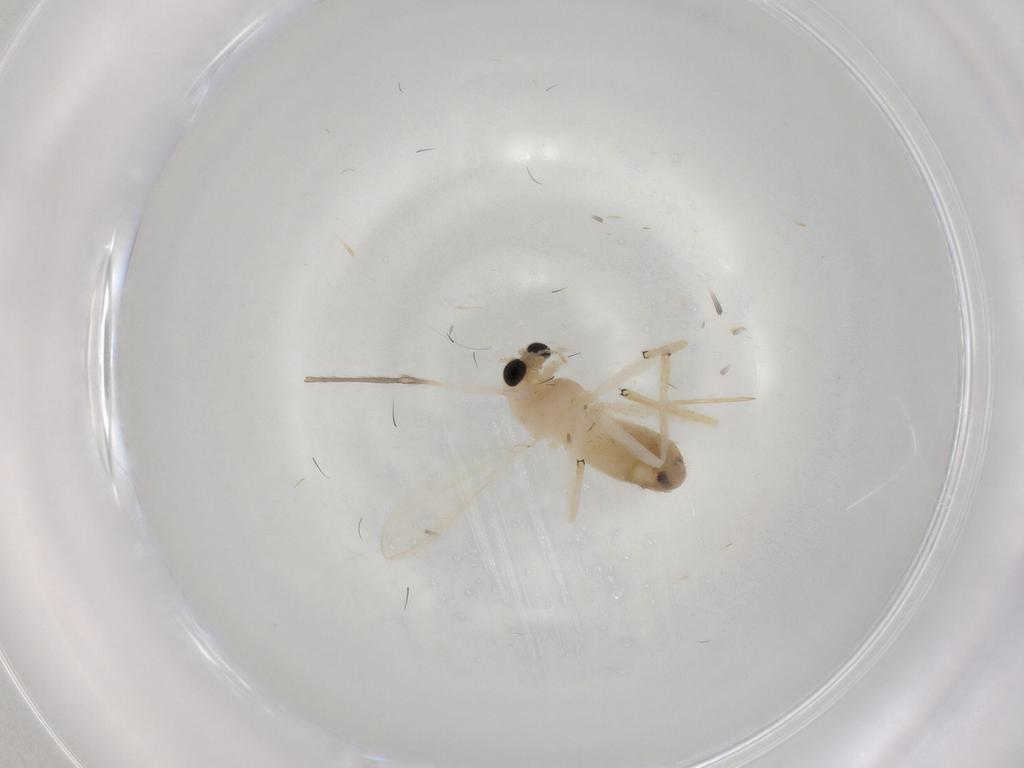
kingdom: Animalia
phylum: Arthropoda
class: Insecta
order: Diptera
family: Chironomidae
